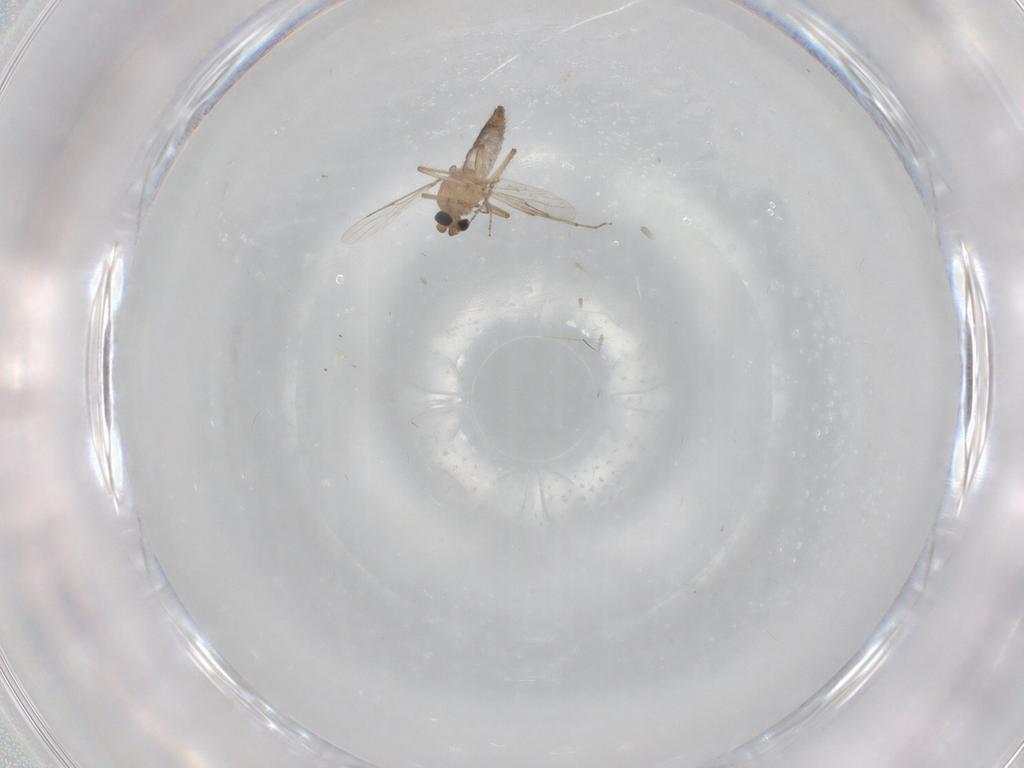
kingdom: Animalia
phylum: Arthropoda
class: Insecta
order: Diptera
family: Ceratopogonidae
